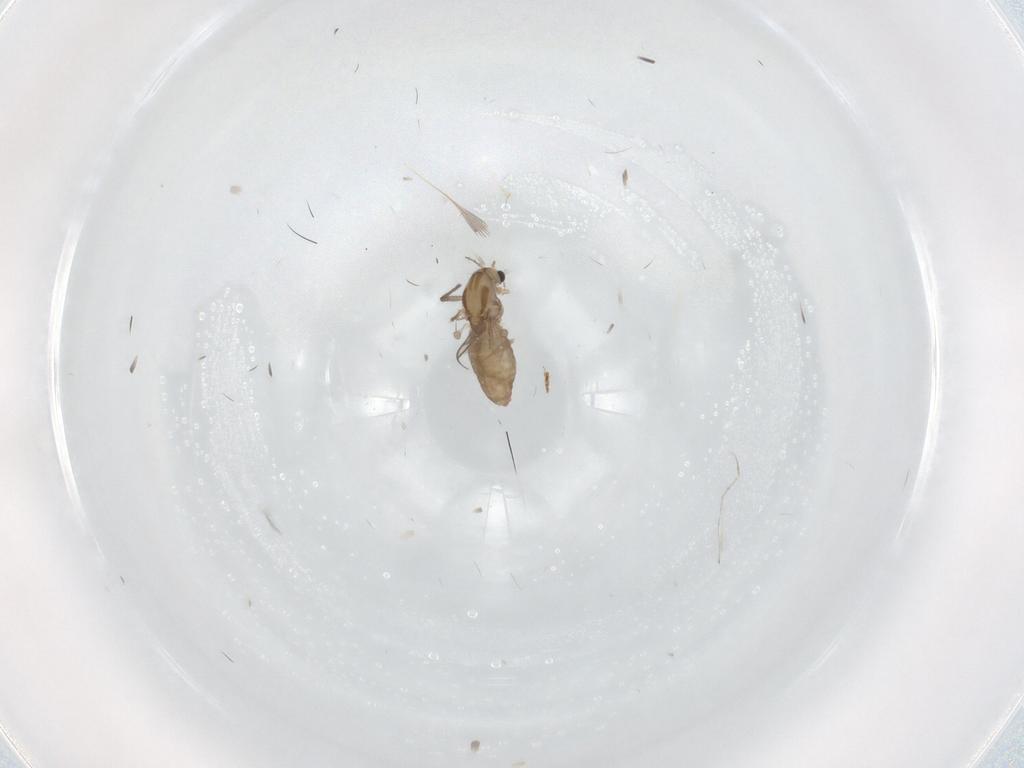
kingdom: Animalia
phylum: Arthropoda
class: Insecta
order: Diptera
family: Chironomidae
